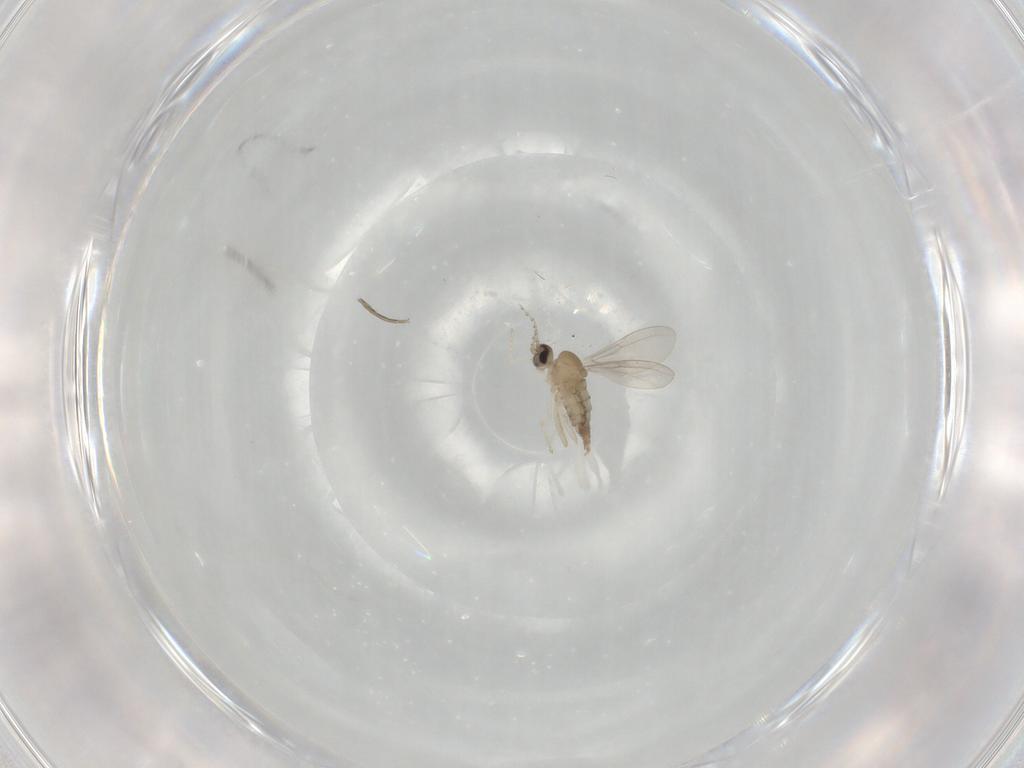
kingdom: Animalia
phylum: Arthropoda
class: Insecta
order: Diptera
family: Cecidomyiidae
